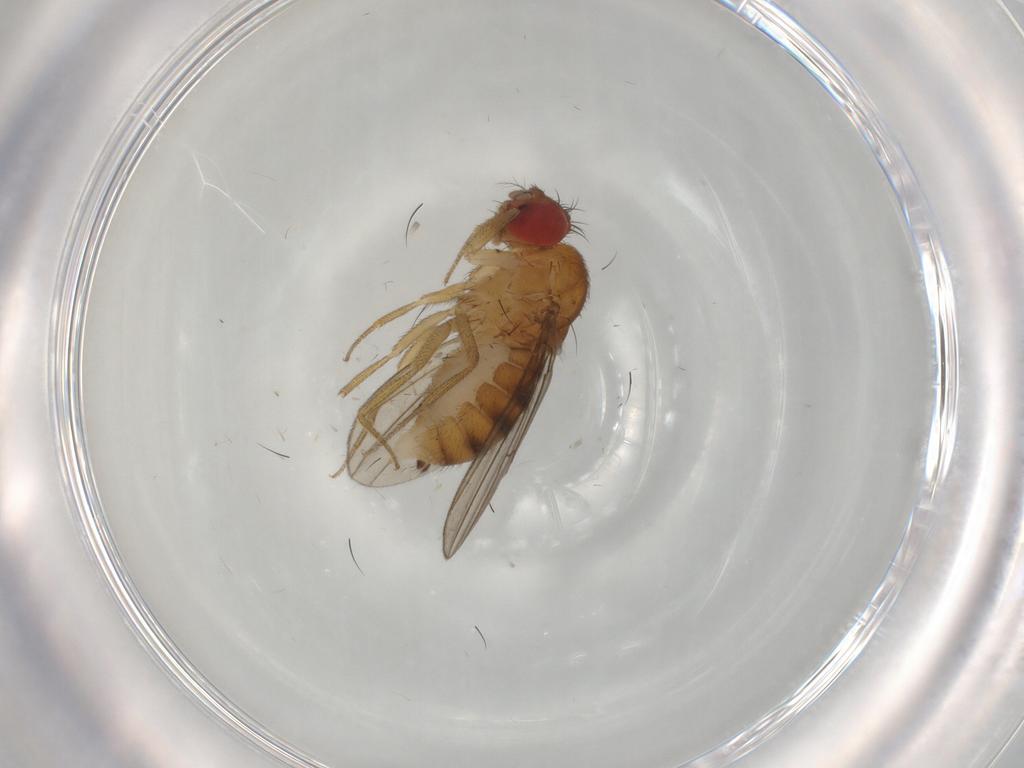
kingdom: Animalia
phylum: Arthropoda
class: Insecta
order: Diptera
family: Drosophilidae
